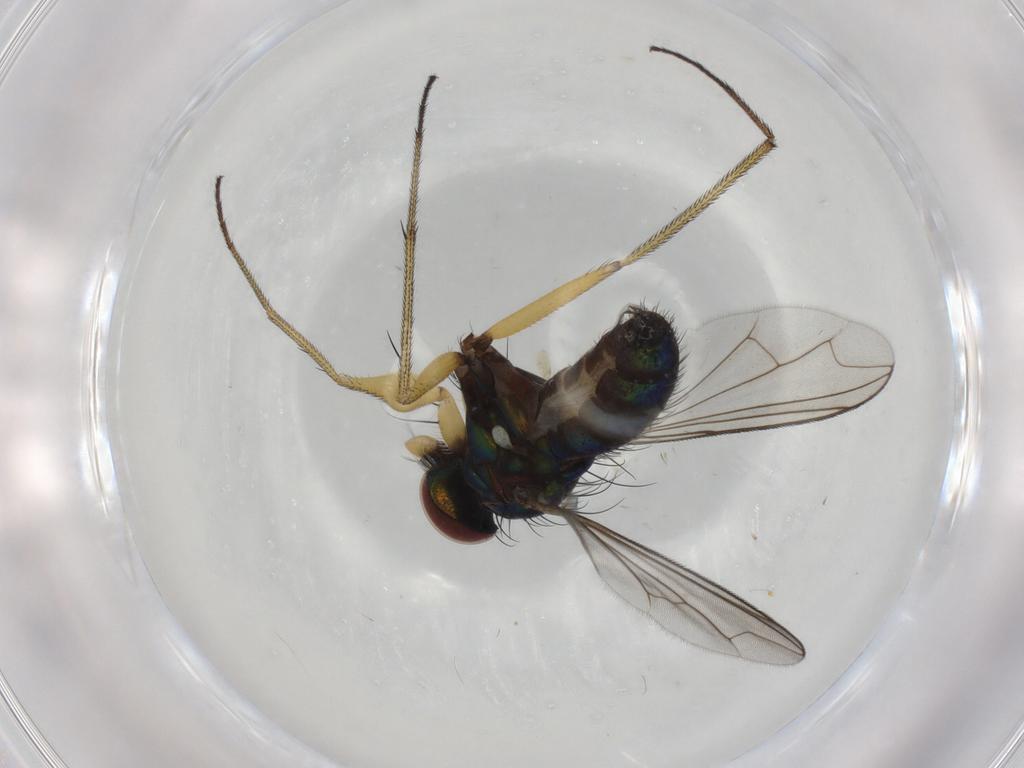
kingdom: Animalia
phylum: Arthropoda
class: Insecta
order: Diptera
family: Dolichopodidae
